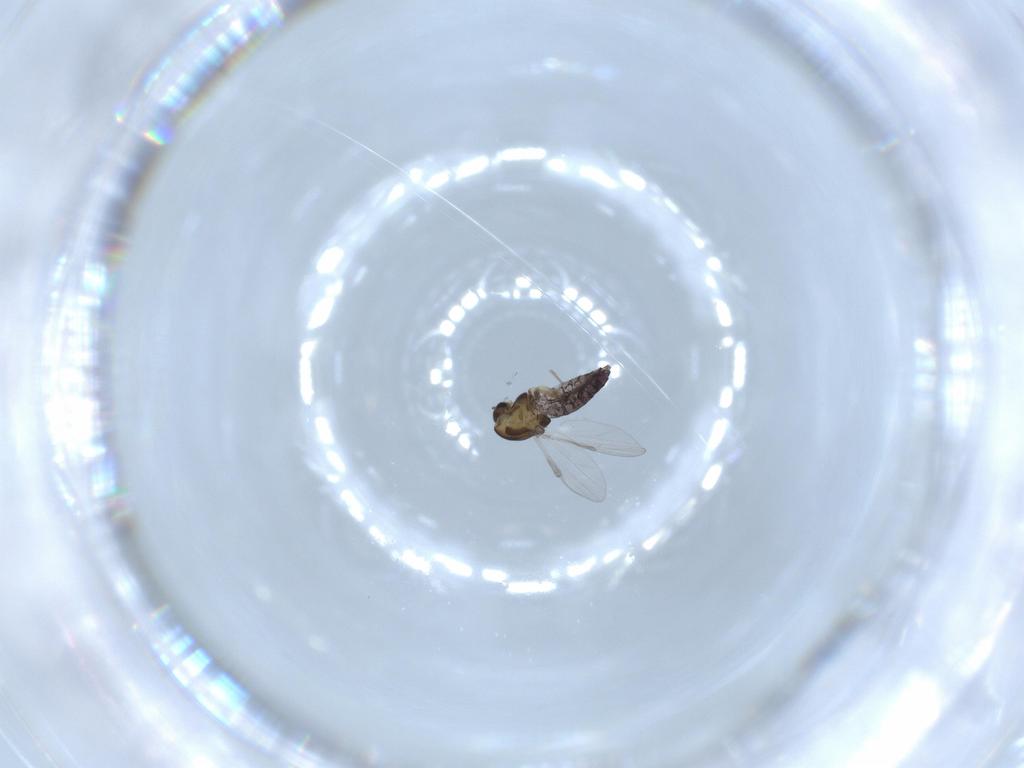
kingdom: Animalia
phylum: Arthropoda
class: Insecta
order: Diptera
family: Chironomidae
